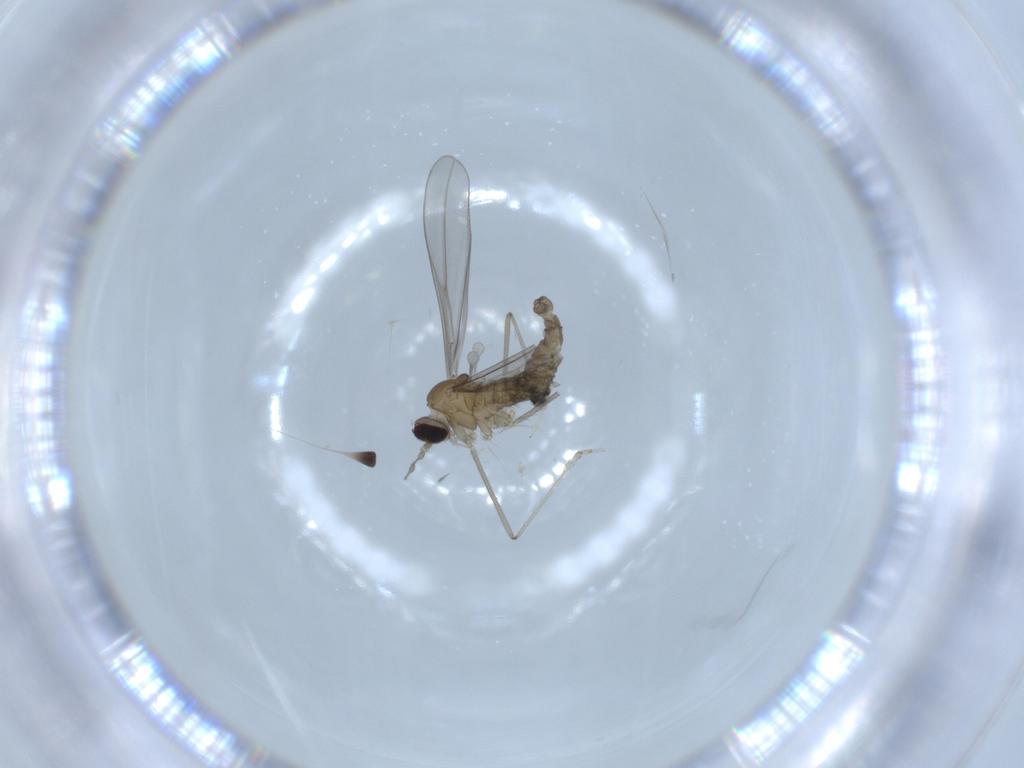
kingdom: Animalia
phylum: Arthropoda
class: Insecta
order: Diptera
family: Cecidomyiidae
